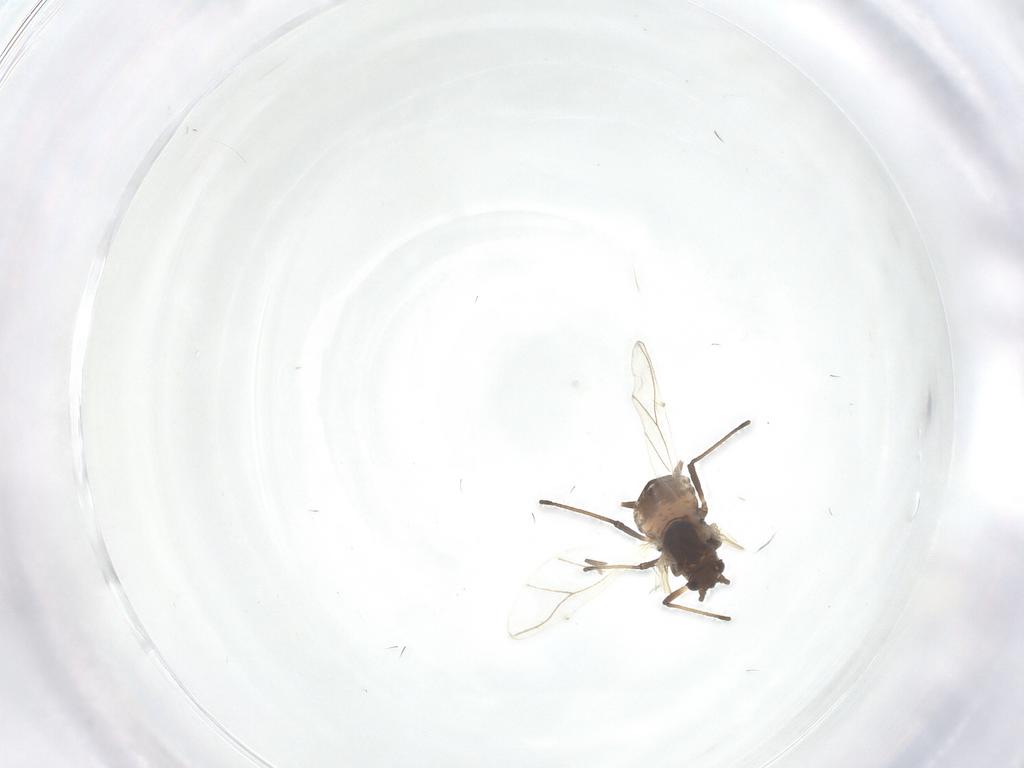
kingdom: Animalia
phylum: Arthropoda
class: Insecta
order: Hemiptera
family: Aphididae
